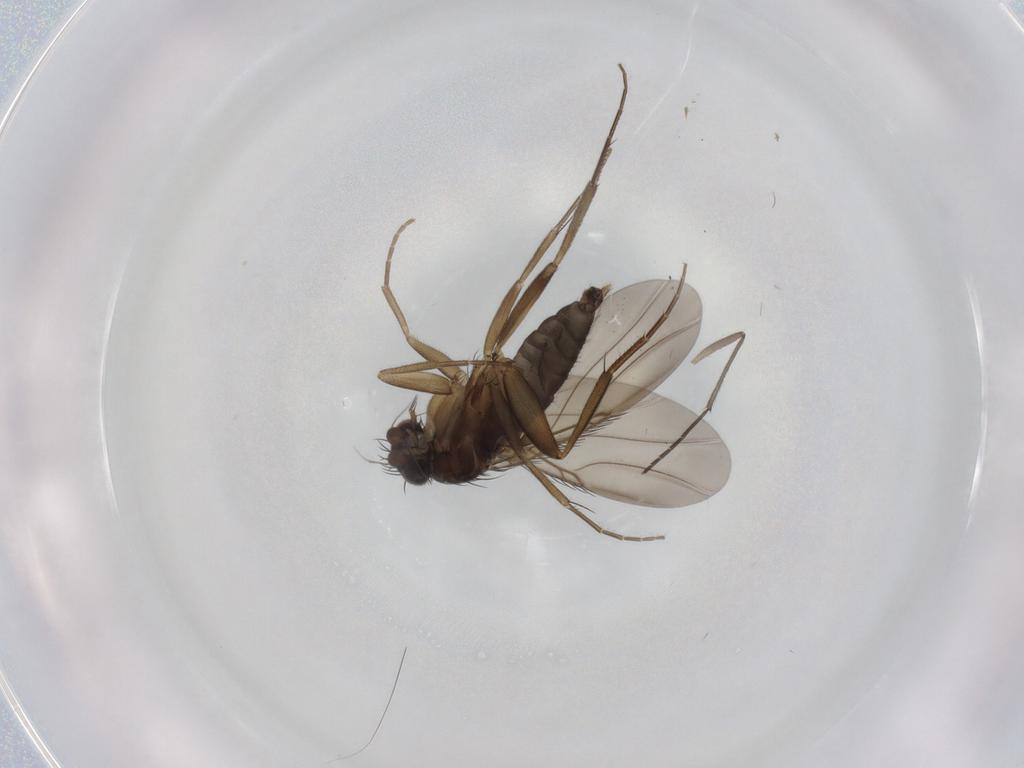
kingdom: Animalia
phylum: Arthropoda
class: Insecta
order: Diptera
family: Phoridae
